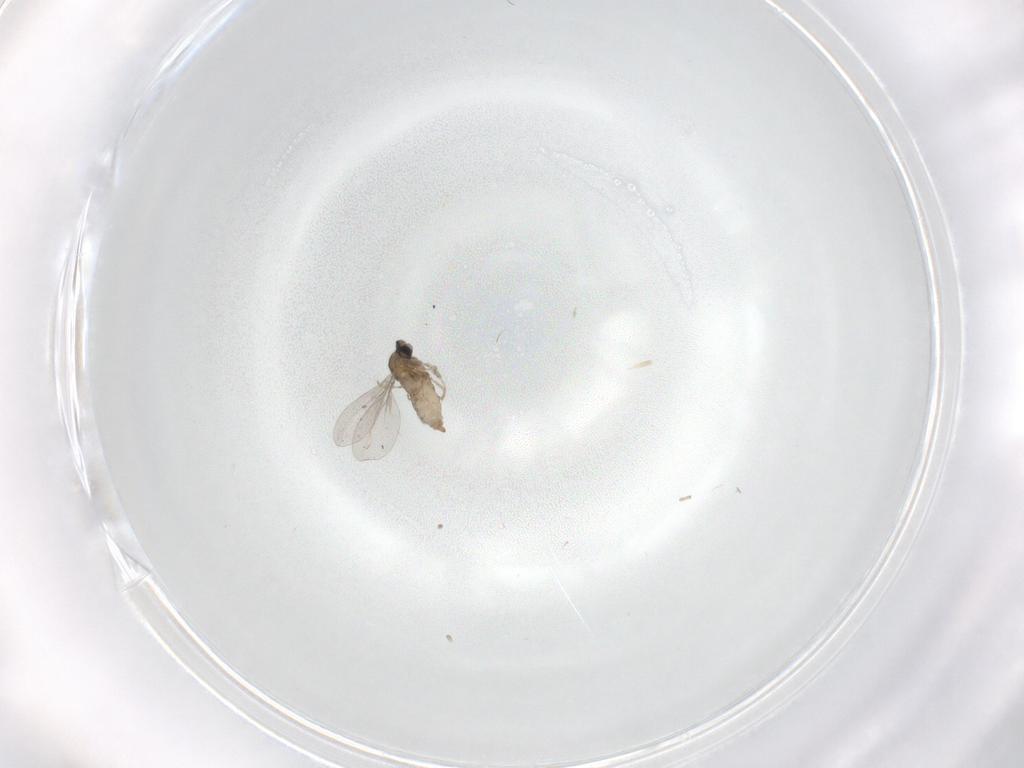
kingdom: Animalia
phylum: Arthropoda
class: Insecta
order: Diptera
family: Cecidomyiidae
